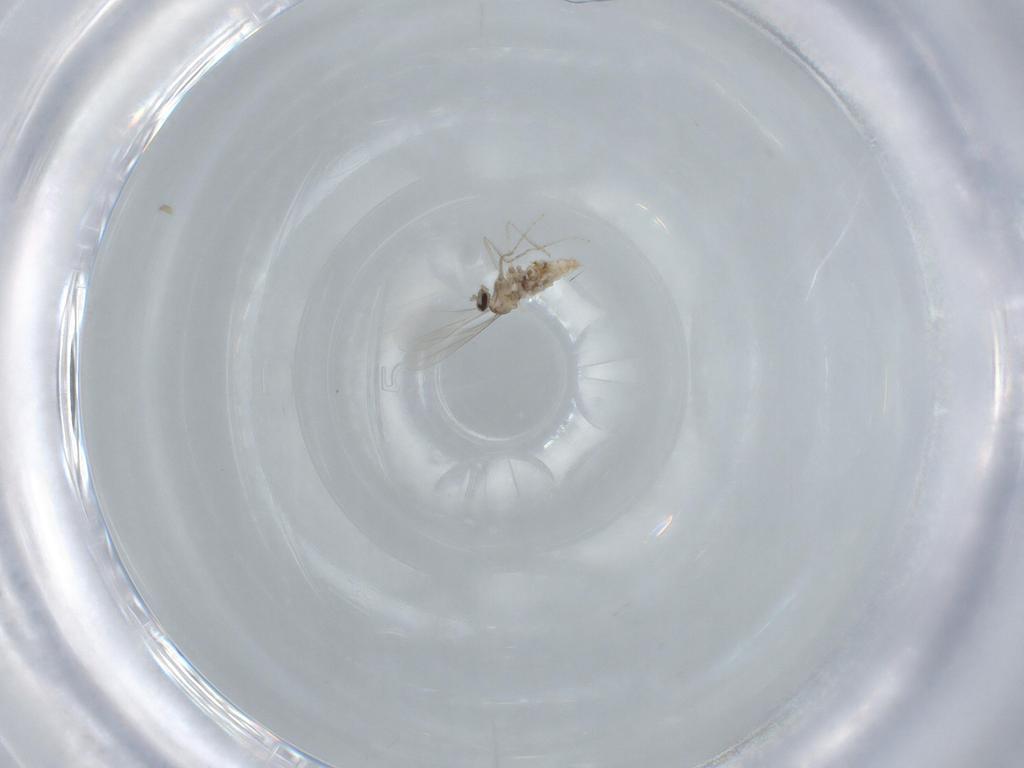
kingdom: Animalia
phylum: Arthropoda
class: Insecta
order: Diptera
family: Cecidomyiidae
